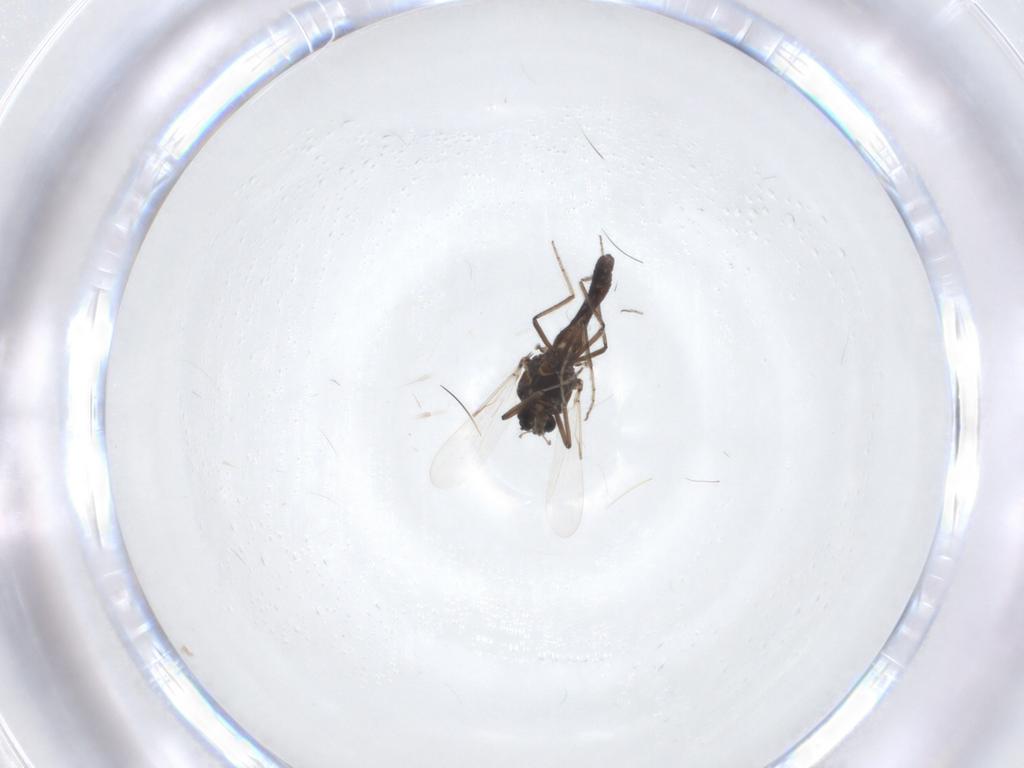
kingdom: Animalia
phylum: Arthropoda
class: Insecta
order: Diptera
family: Ceratopogonidae
